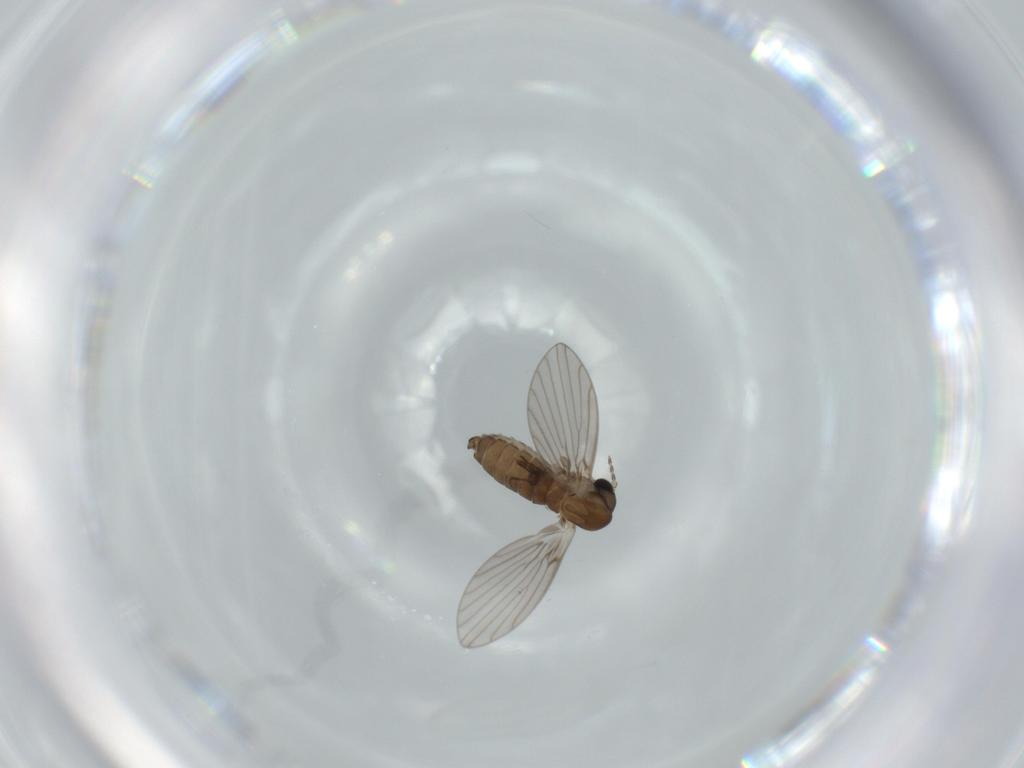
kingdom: Animalia
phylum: Arthropoda
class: Insecta
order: Diptera
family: Psychodidae
